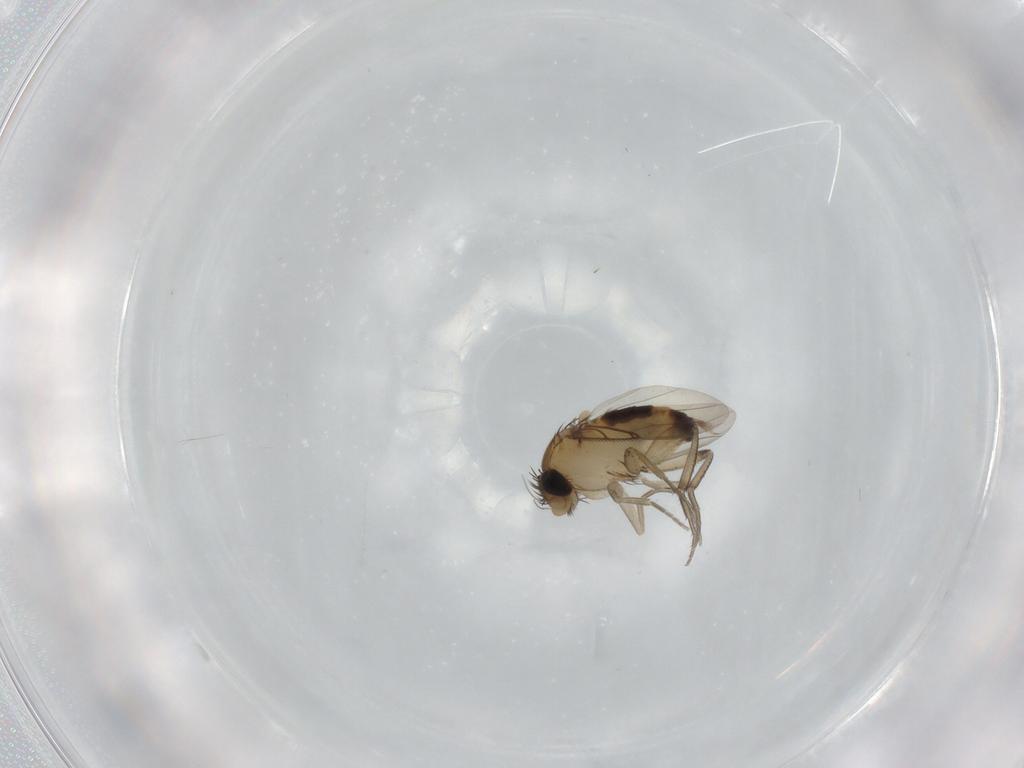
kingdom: Animalia
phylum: Arthropoda
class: Insecta
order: Diptera
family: Phoridae
